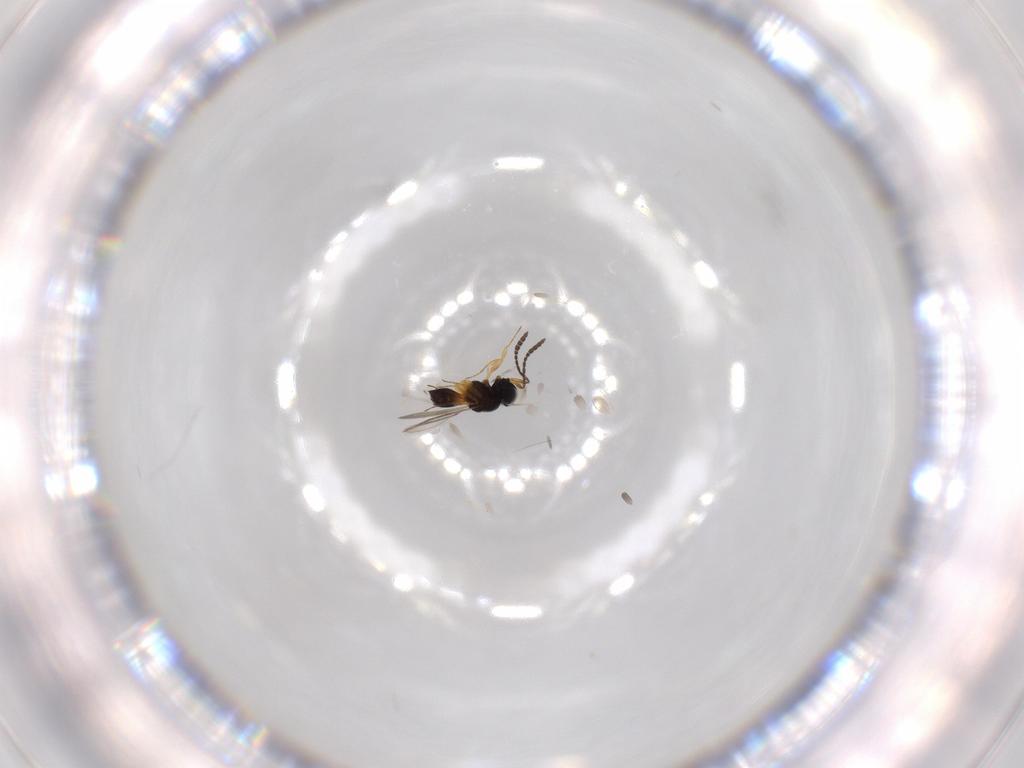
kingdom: Animalia
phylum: Arthropoda
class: Insecta
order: Hymenoptera
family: Scelionidae
